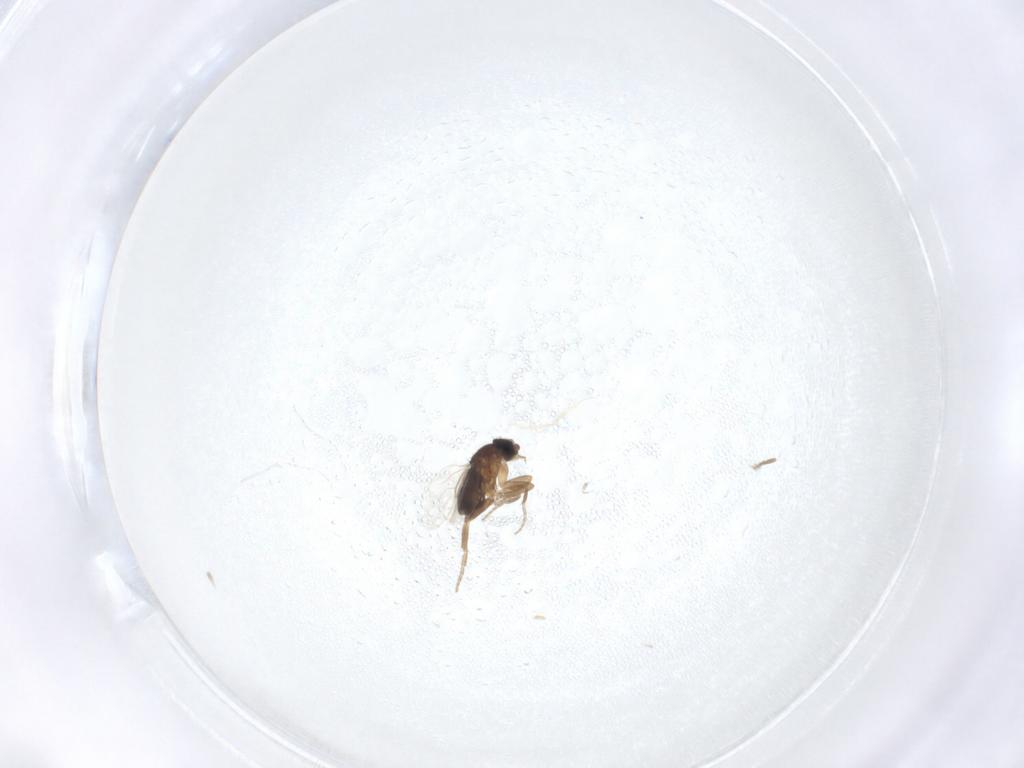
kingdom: Animalia
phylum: Arthropoda
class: Insecta
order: Diptera
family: Phoridae
